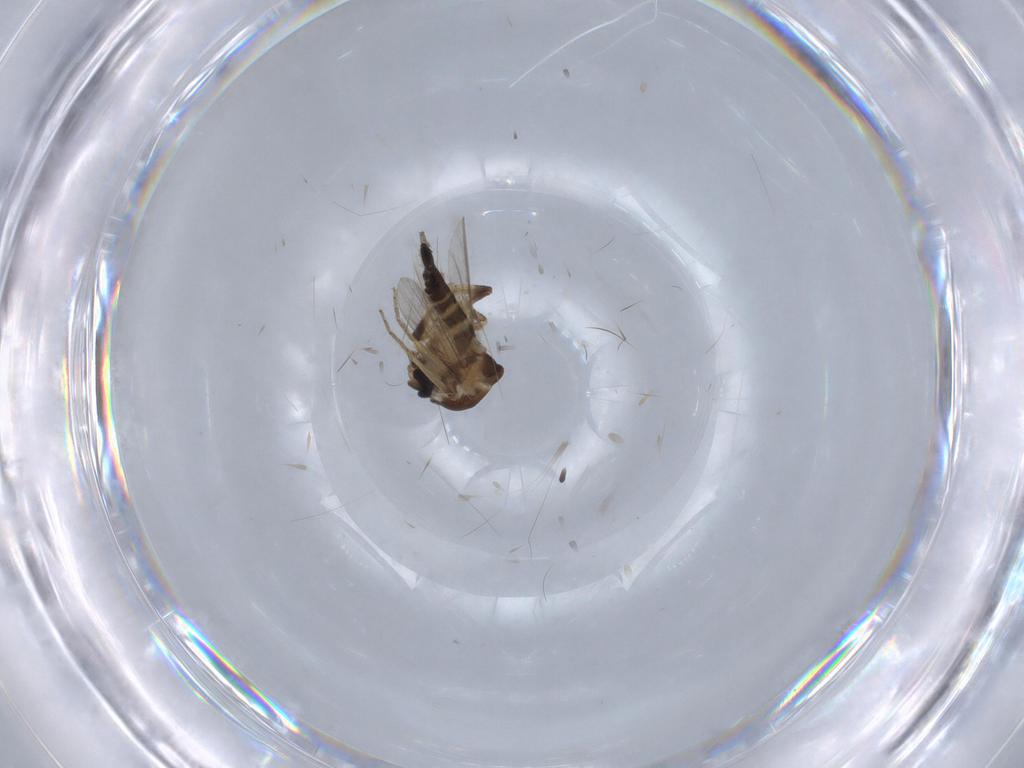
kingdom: Animalia
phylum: Arthropoda
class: Insecta
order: Diptera
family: Ceratopogonidae
